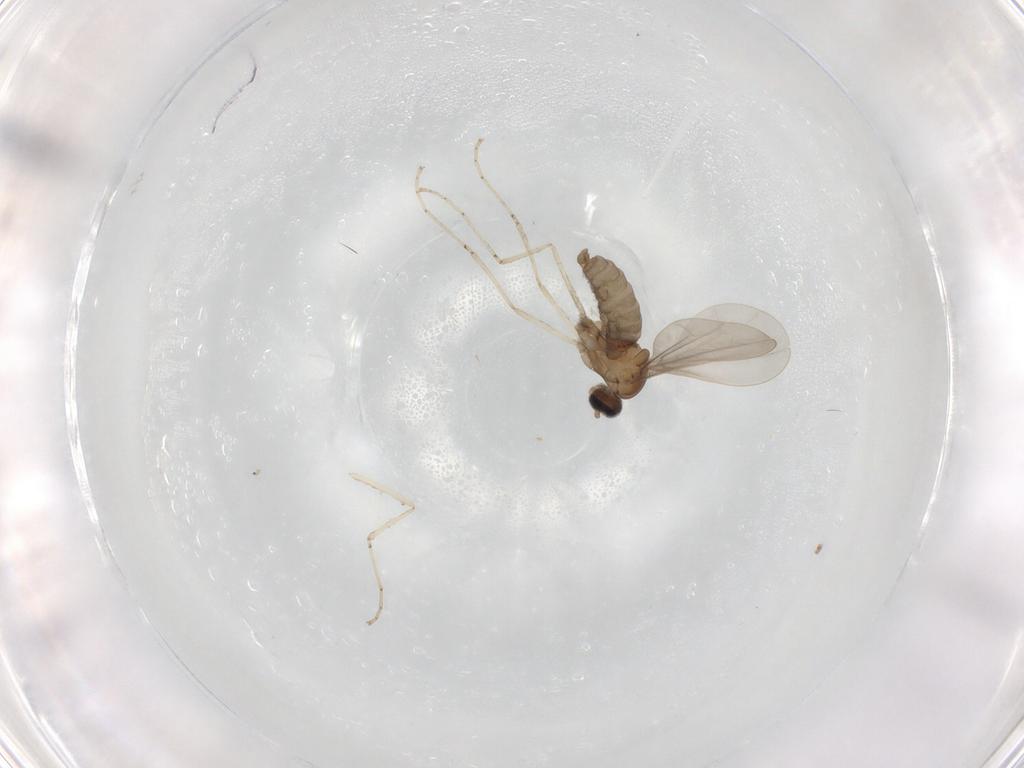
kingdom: Animalia
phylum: Arthropoda
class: Insecta
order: Diptera
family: Cecidomyiidae
